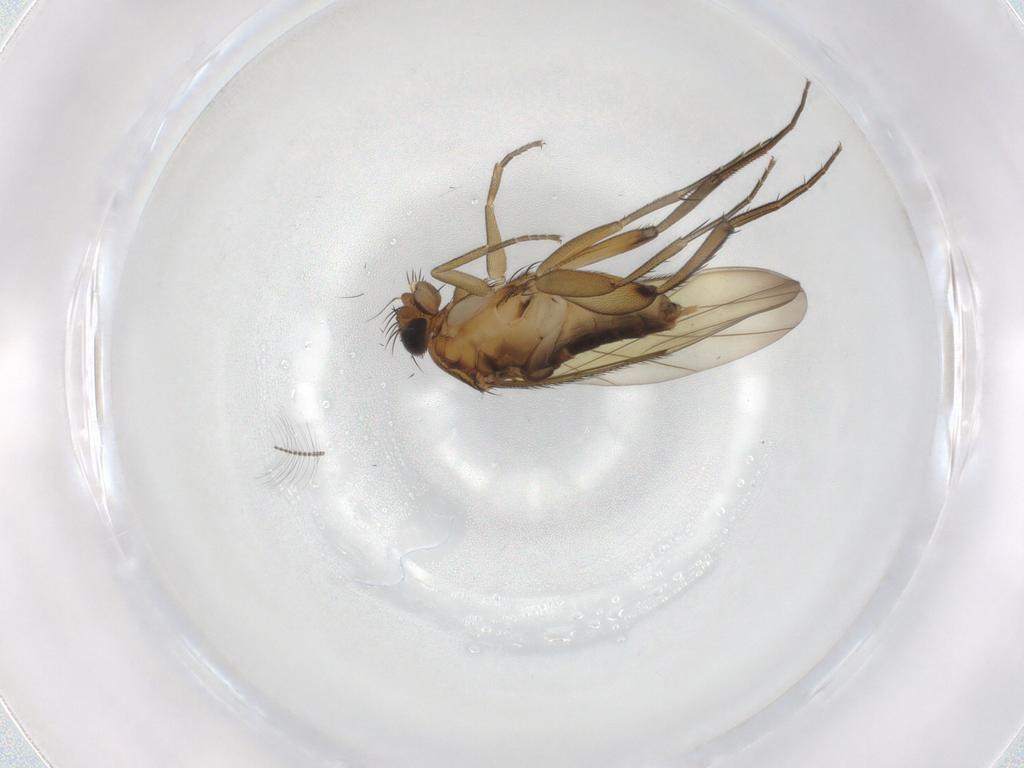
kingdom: Animalia
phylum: Arthropoda
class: Insecta
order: Diptera
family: Phoridae
